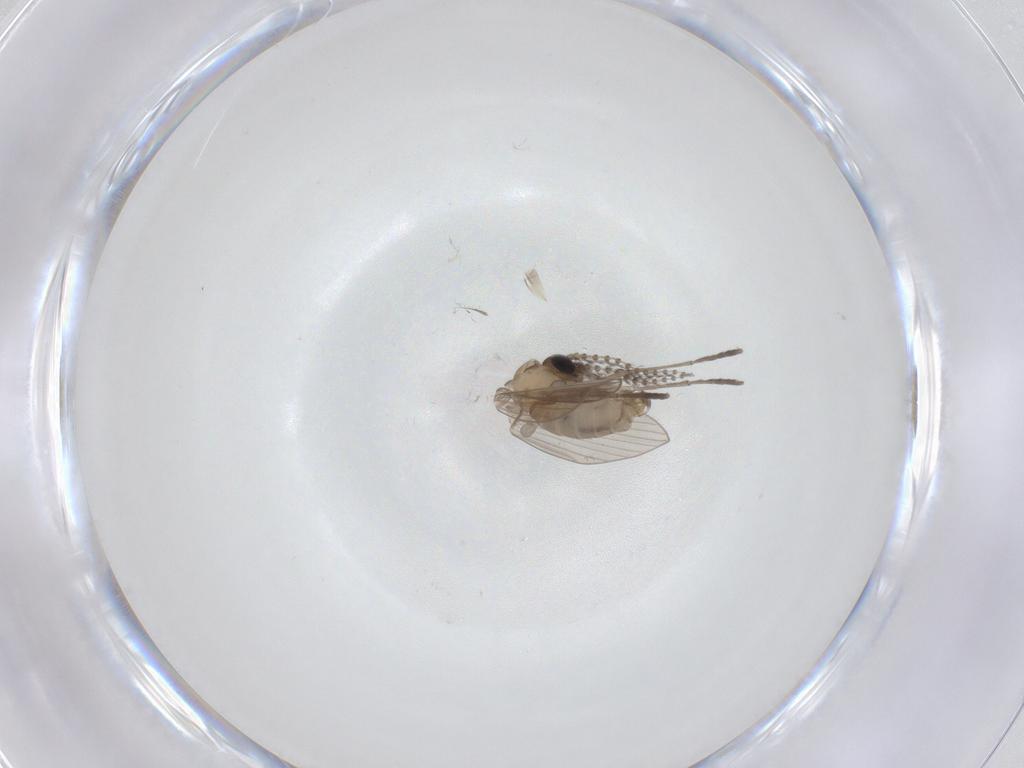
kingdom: Animalia
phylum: Arthropoda
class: Insecta
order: Diptera
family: Psychodidae
